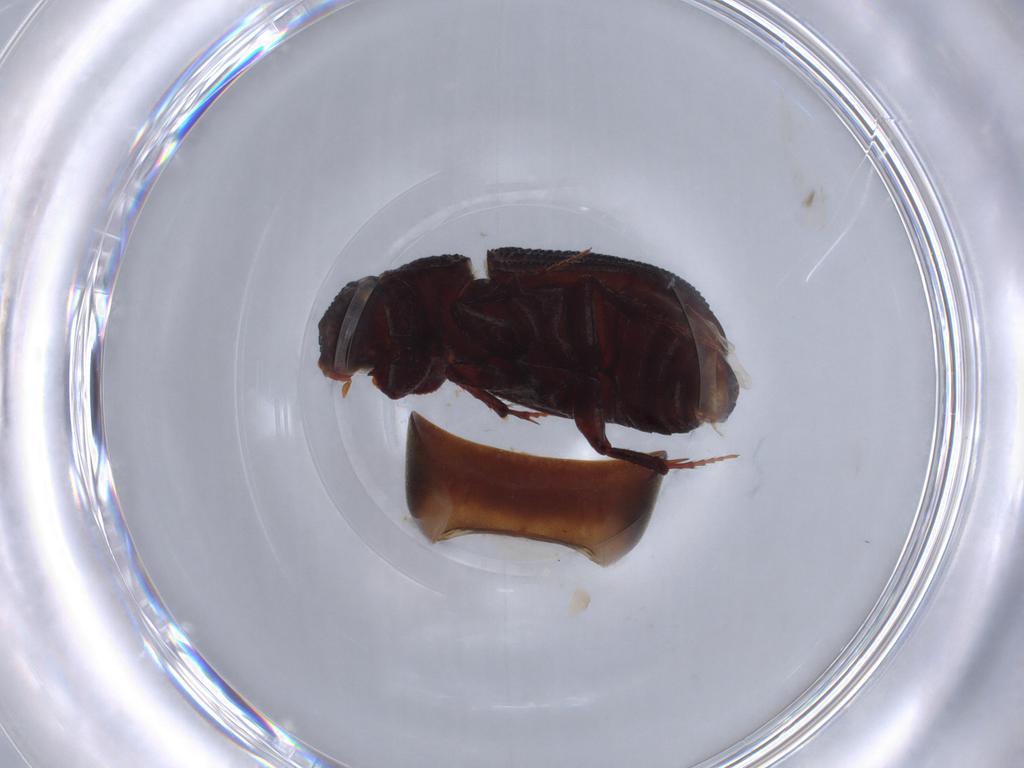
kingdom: Animalia
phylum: Arthropoda
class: Insecta
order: Coleoptera
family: Scarabaeidae
